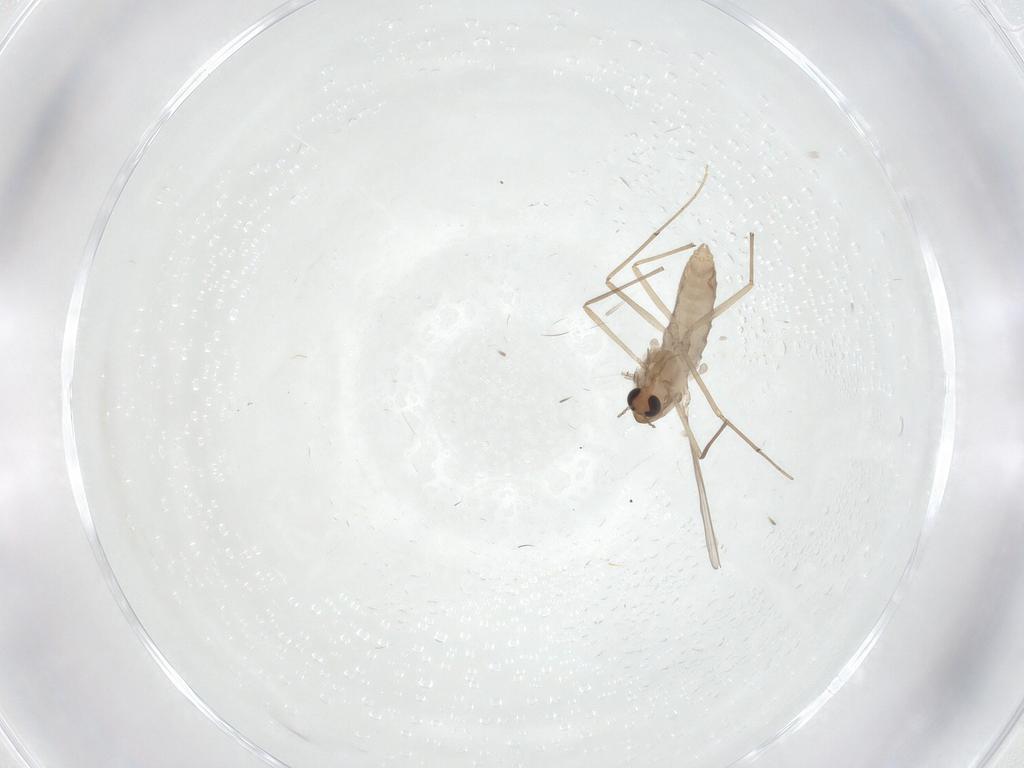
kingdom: Animalia
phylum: Arthropoda
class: Insecta
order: Diptera
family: Chironomidae
